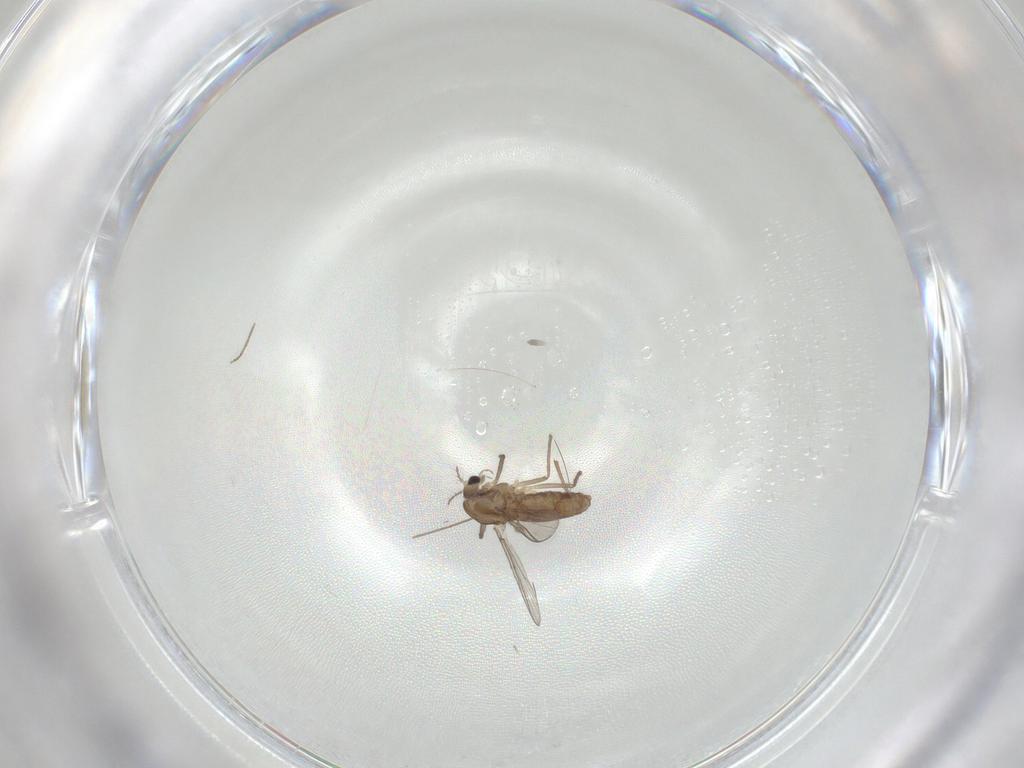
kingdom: Animalia
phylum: Arthropoda
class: Insecta
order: Diptera
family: Chironomidae
